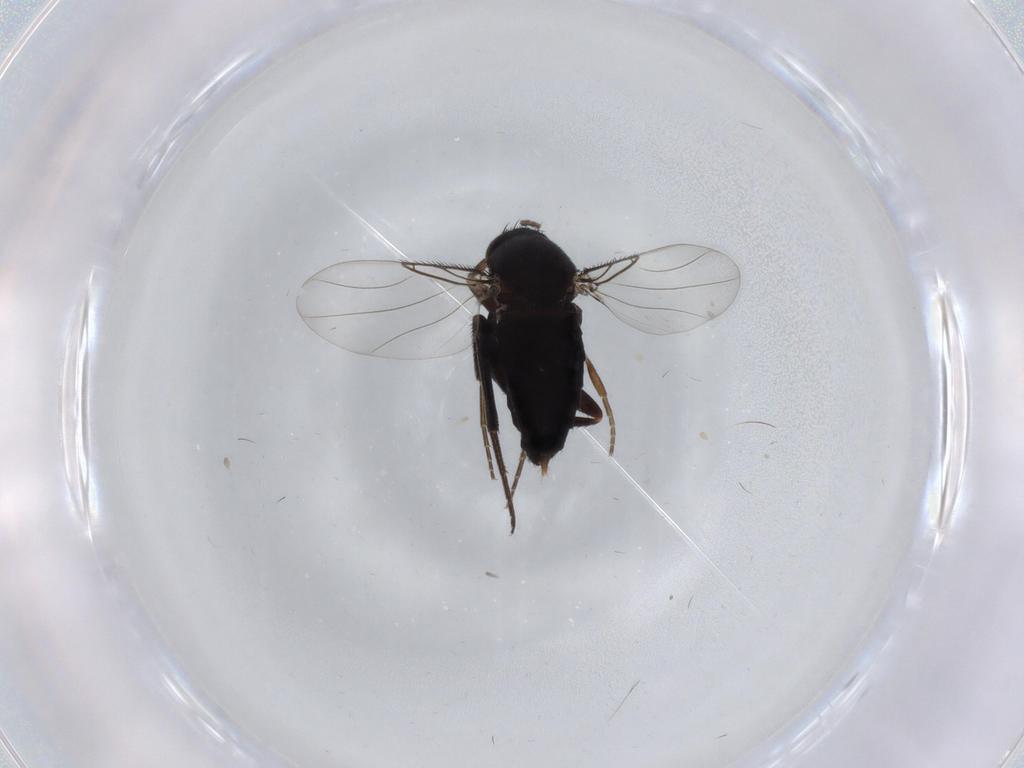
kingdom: Animalia
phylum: Arthropoda
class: Insecta
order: Diptera
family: Phoridae
